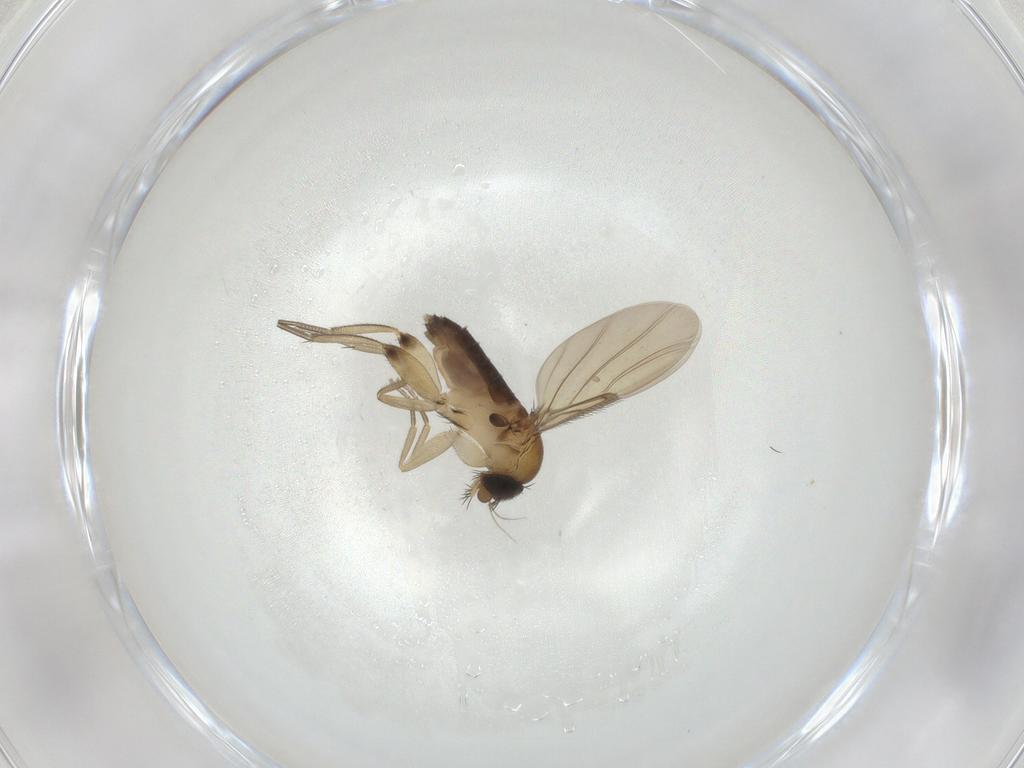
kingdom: Animalia
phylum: Arthropoda
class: Insecta
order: Diptera
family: Phoridae
